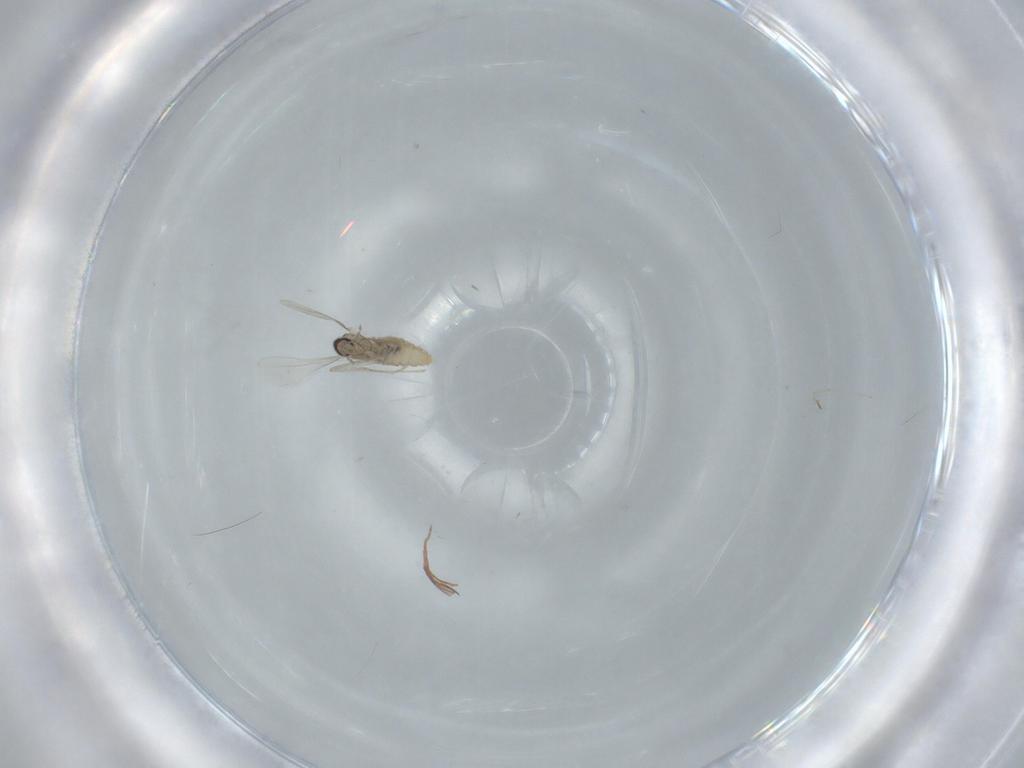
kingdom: Animalia
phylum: Arthropoda
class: Insecta
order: Diptera
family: Cecidomyiidae
